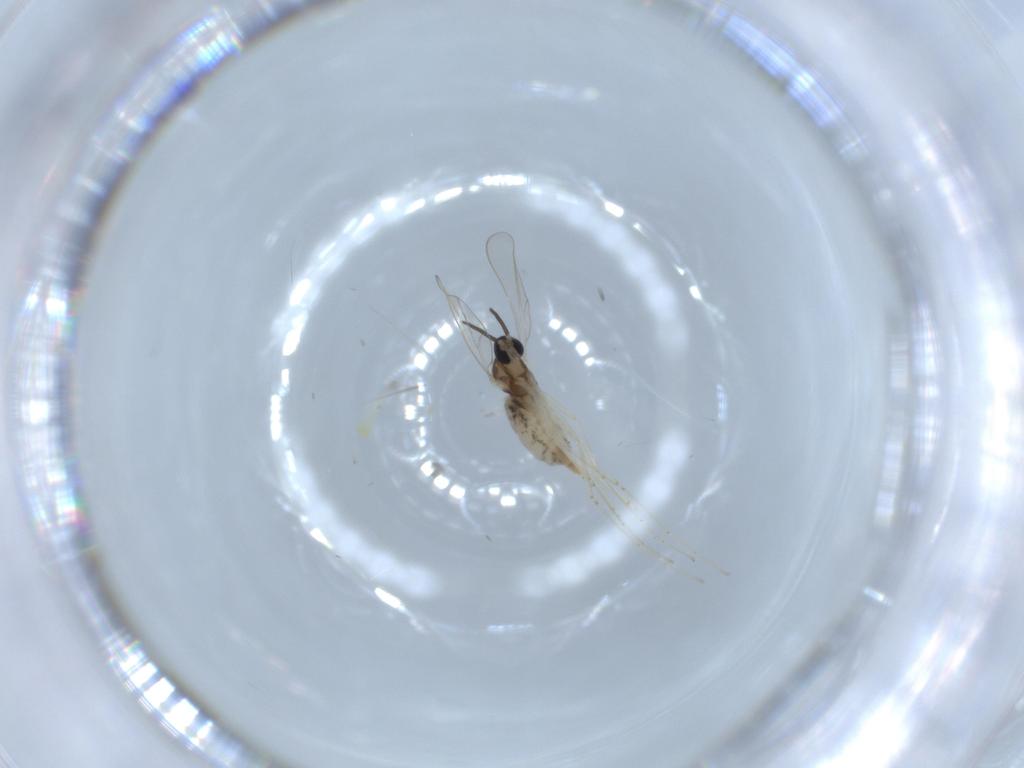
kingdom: Animalia
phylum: Arthropoda
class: Insecta
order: Diptera
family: Cecidomyiidae
